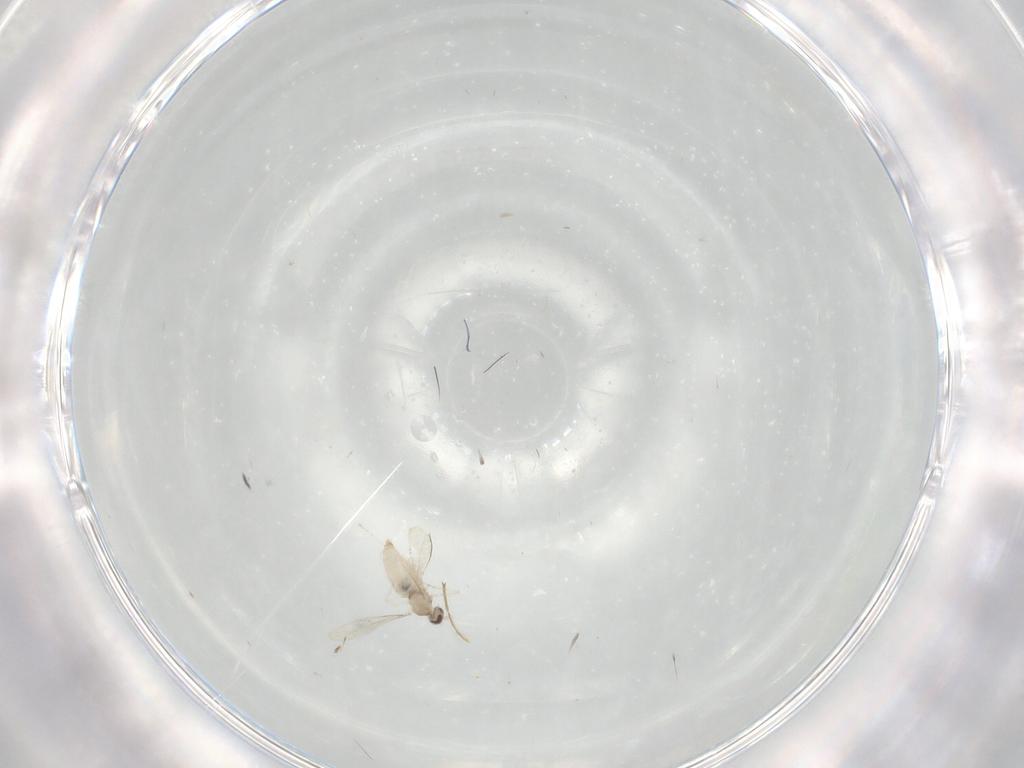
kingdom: Animalia
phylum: Arthropoda
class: Insecta
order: Diptera
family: Cecidomyiidae
